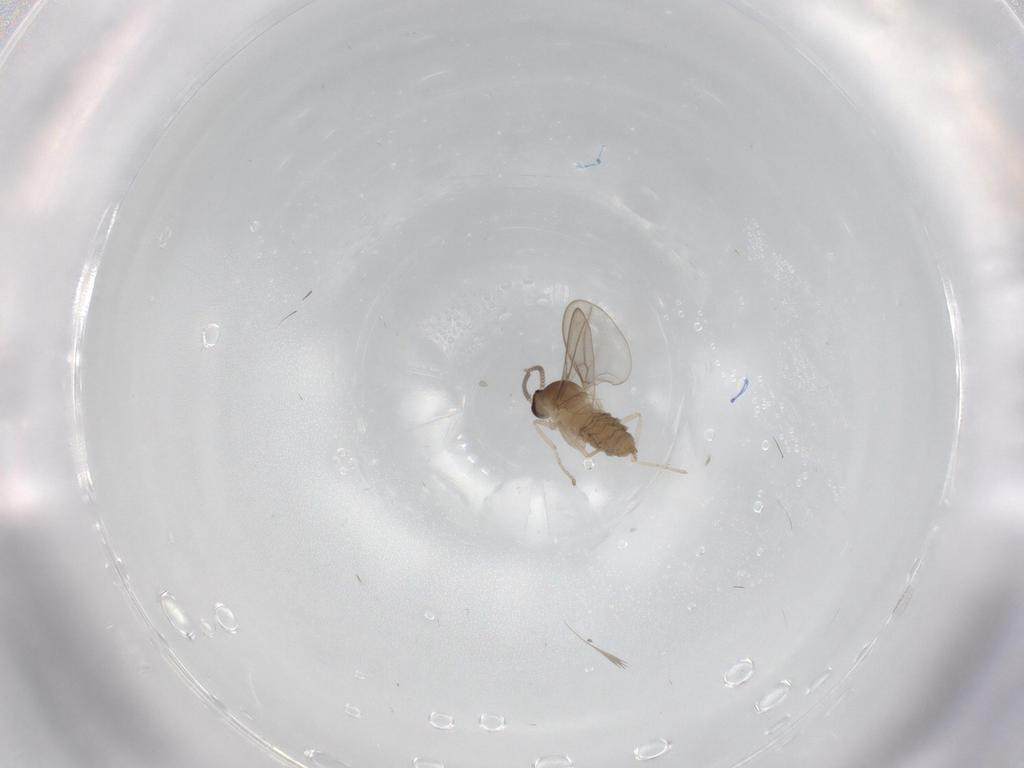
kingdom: Animalia
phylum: Arthropoda
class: Insecta
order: Diptera
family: Cecidomyiidae
